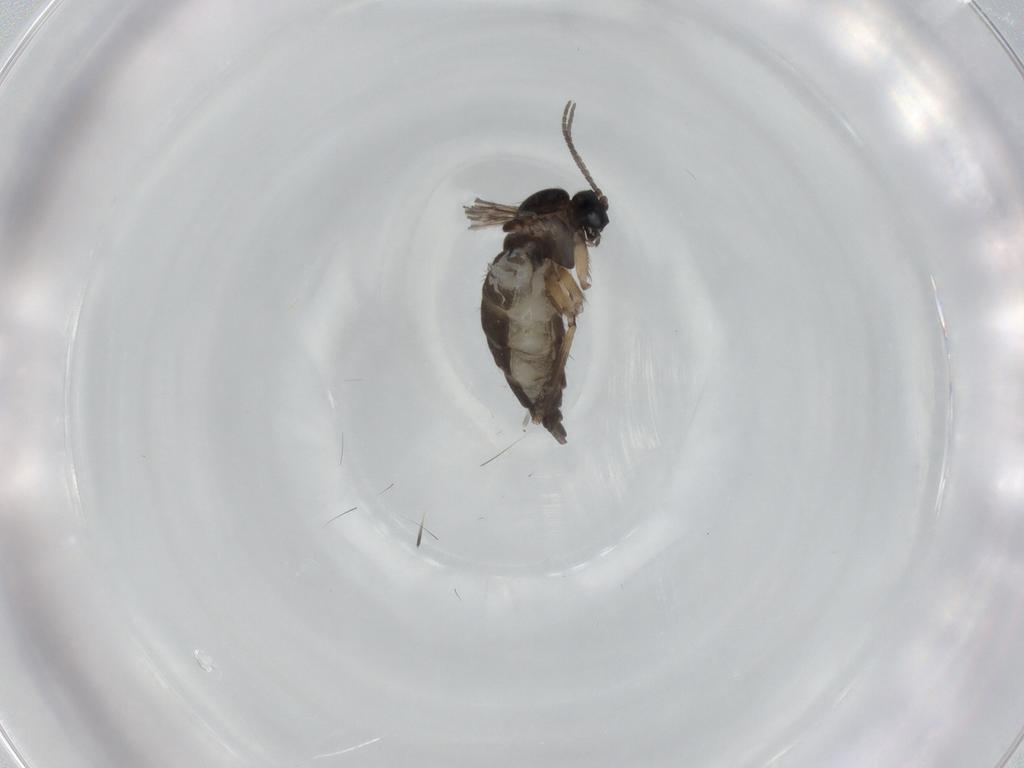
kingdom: Animalia
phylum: Arthropoda
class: Insecta
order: Diptera
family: Sciaridae
